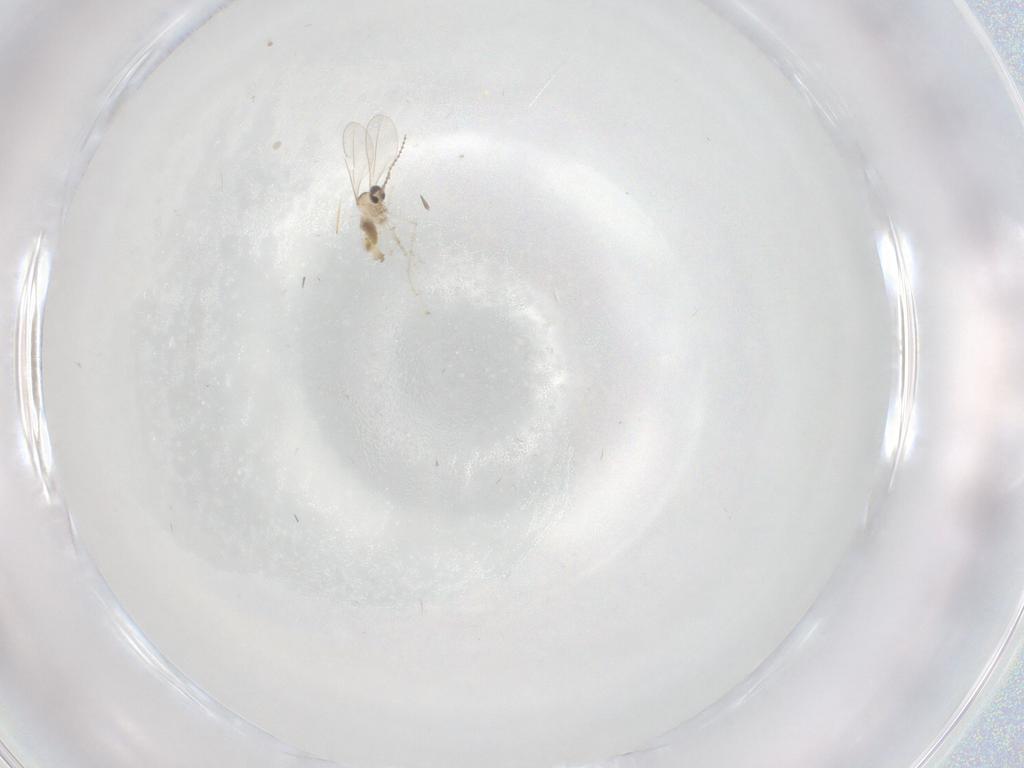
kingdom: Animalia
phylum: Arthropoda
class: Insecta
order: Diptera
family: Cecidomyiidae
